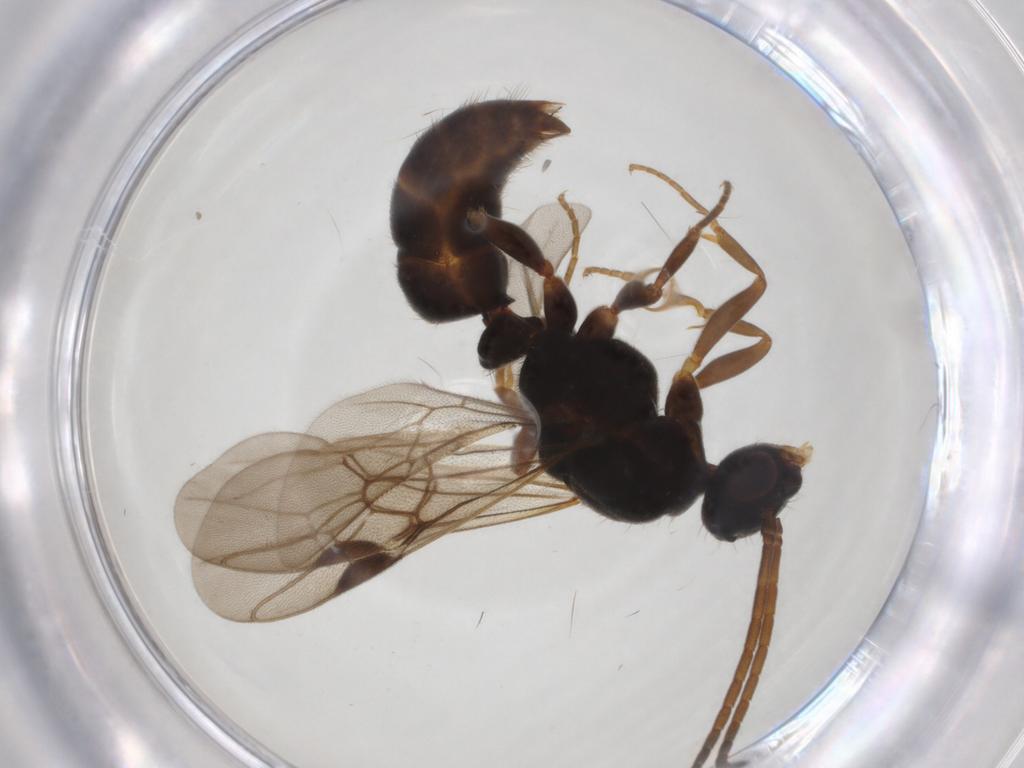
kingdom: Animalia
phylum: Arthropoda
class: Insecta
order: Hymenoptera
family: Formicidae
